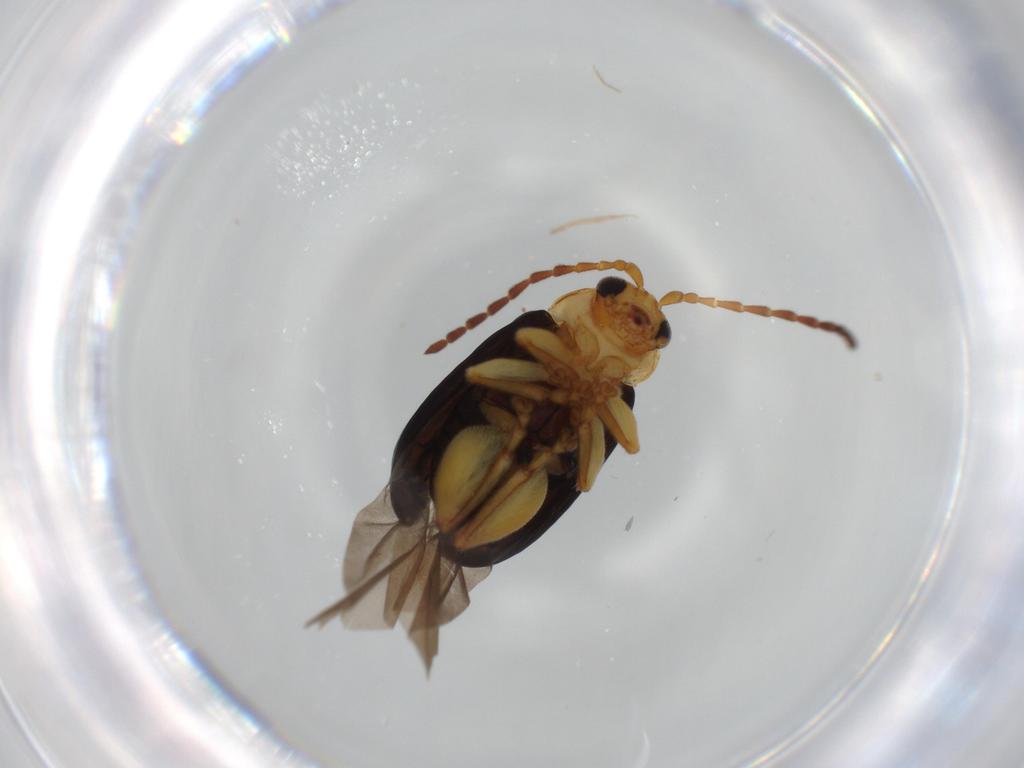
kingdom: Animalia
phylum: Arthropoda
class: Insecta
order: Coleoptera
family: Chrysomelidae
